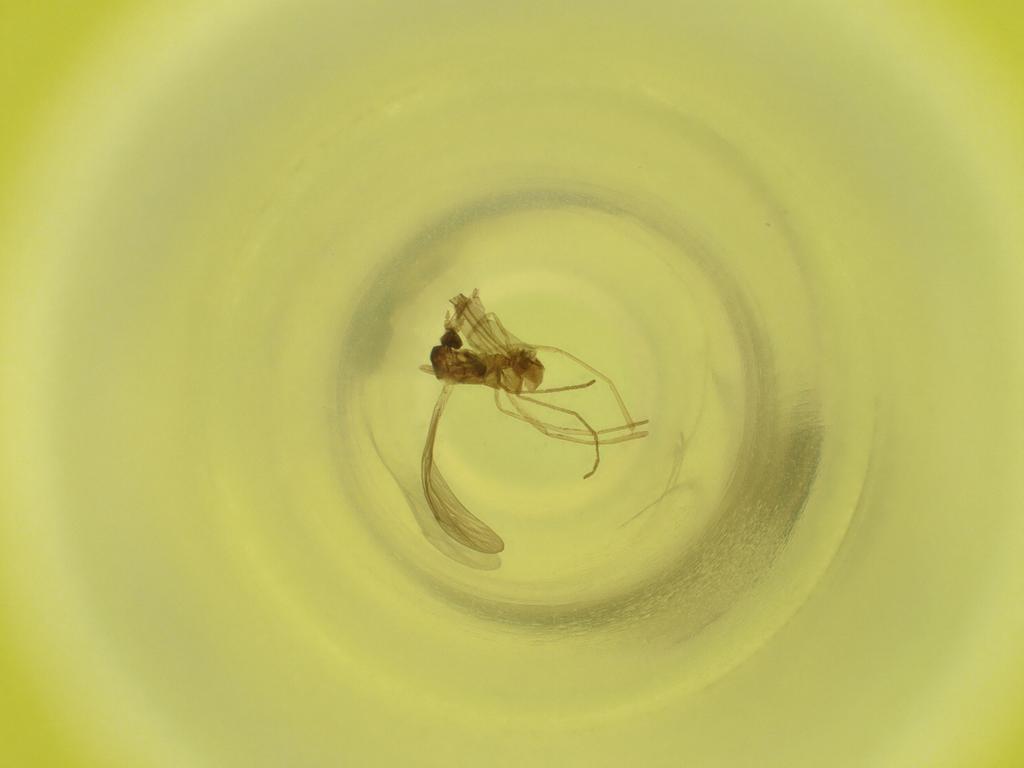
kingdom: Animalia
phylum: Arthropoda
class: Insecta
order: Diptera
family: Cecidomyiidae
